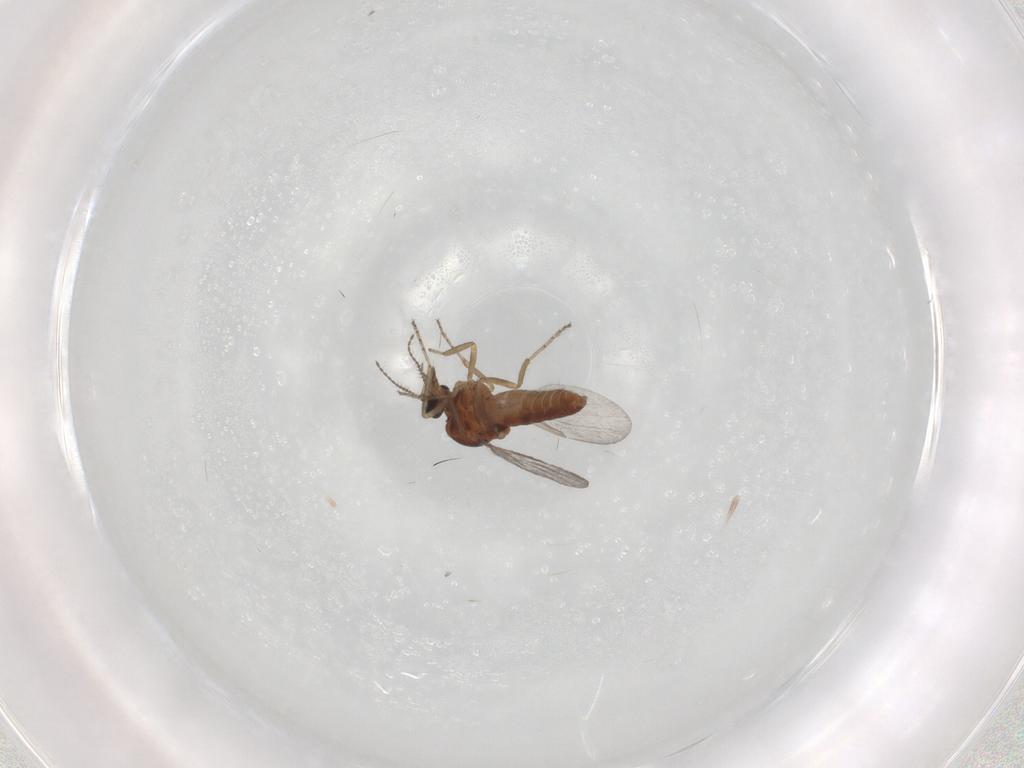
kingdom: Animalia
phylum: Arthropoda
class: Insecta
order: Diptera
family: Ceratopogonidae
